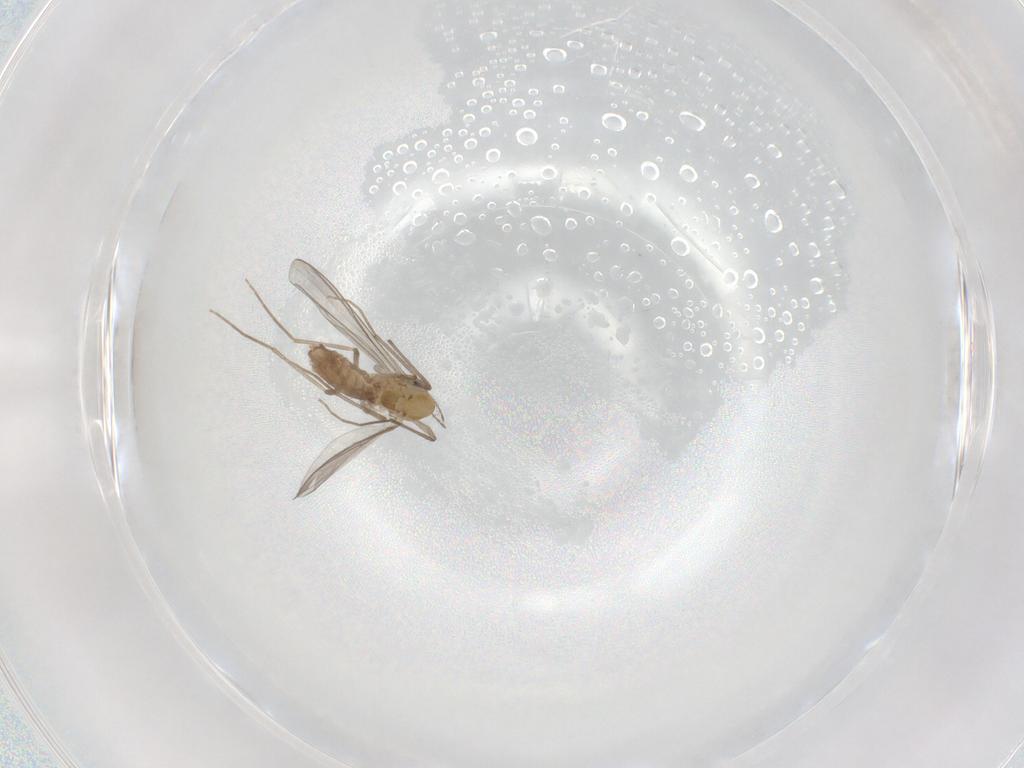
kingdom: Animalia
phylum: Arthropoda
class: Insecta
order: Diptera
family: Chironomidae
